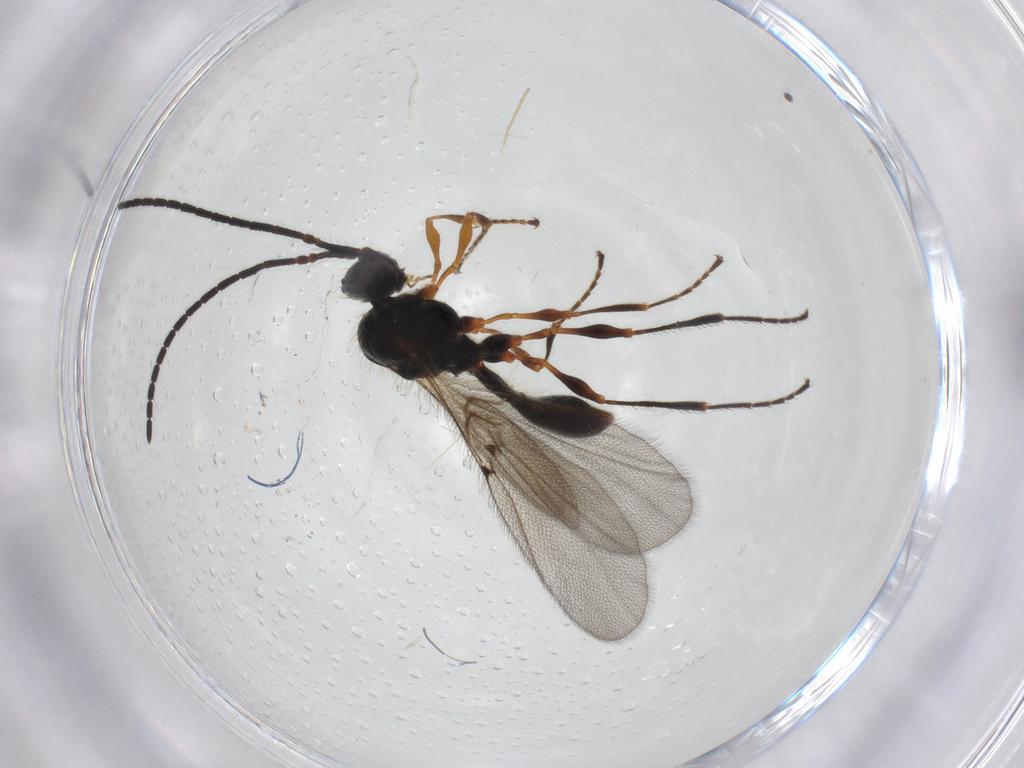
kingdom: Animalia
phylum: Arthropoda
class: Insecta
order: Hymenoptera
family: Diapriidae
